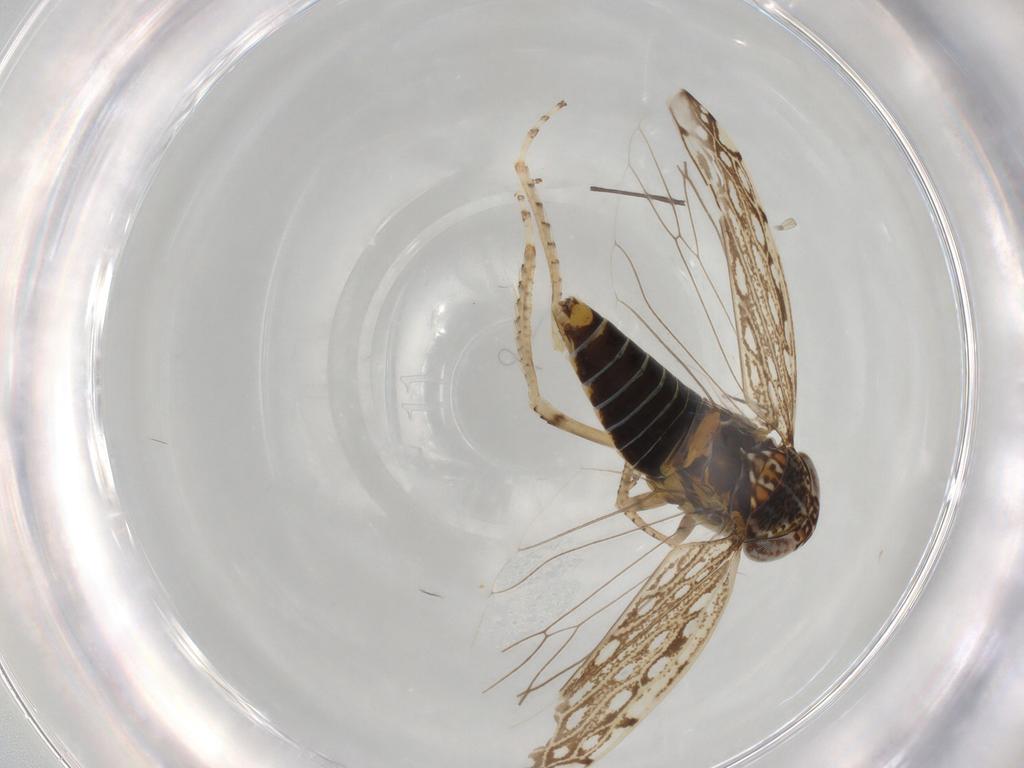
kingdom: Animalia
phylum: Arthropoda
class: Insecta
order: Hemiptera
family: Cicadellidae
